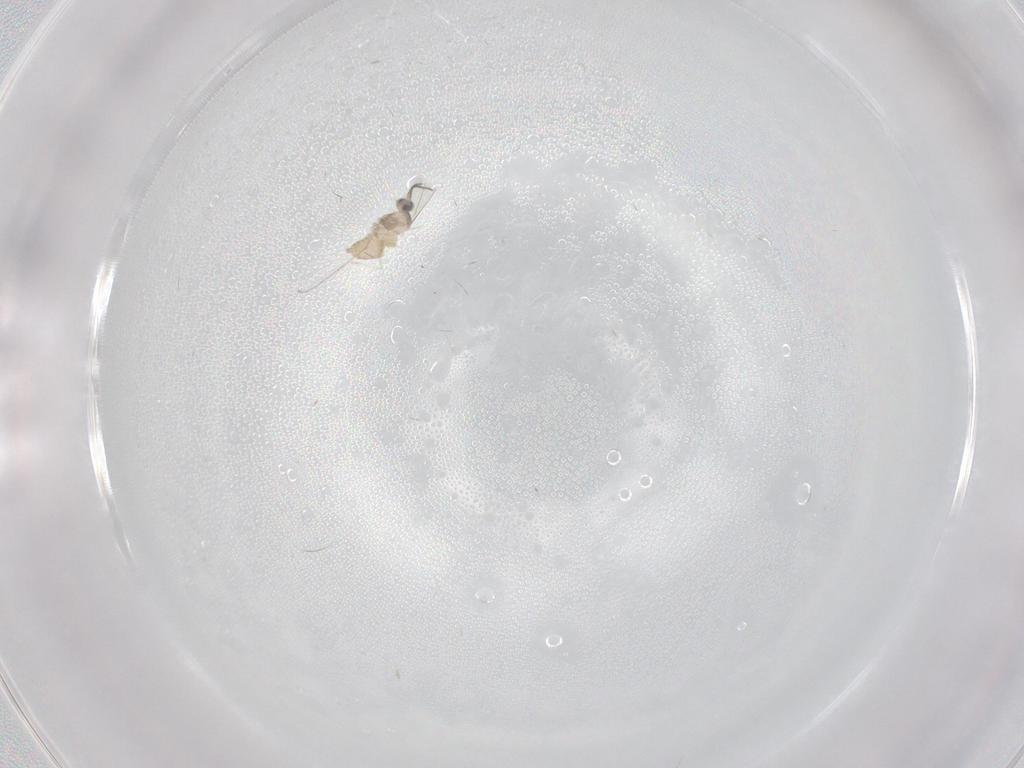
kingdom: Animalia
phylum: Arthropoda
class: Insecta
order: Diptera
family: Cecidomyiidae
